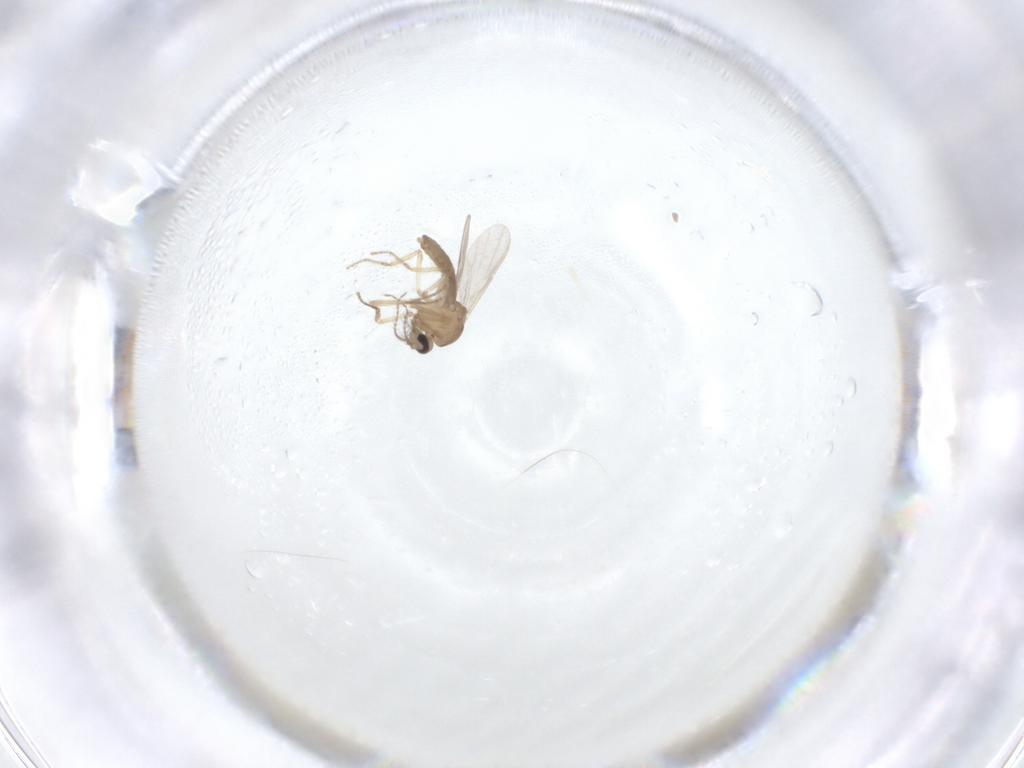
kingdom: Animalia
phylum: Arthropoda
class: Insecta
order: Diptera
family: Ceratopogonidae
